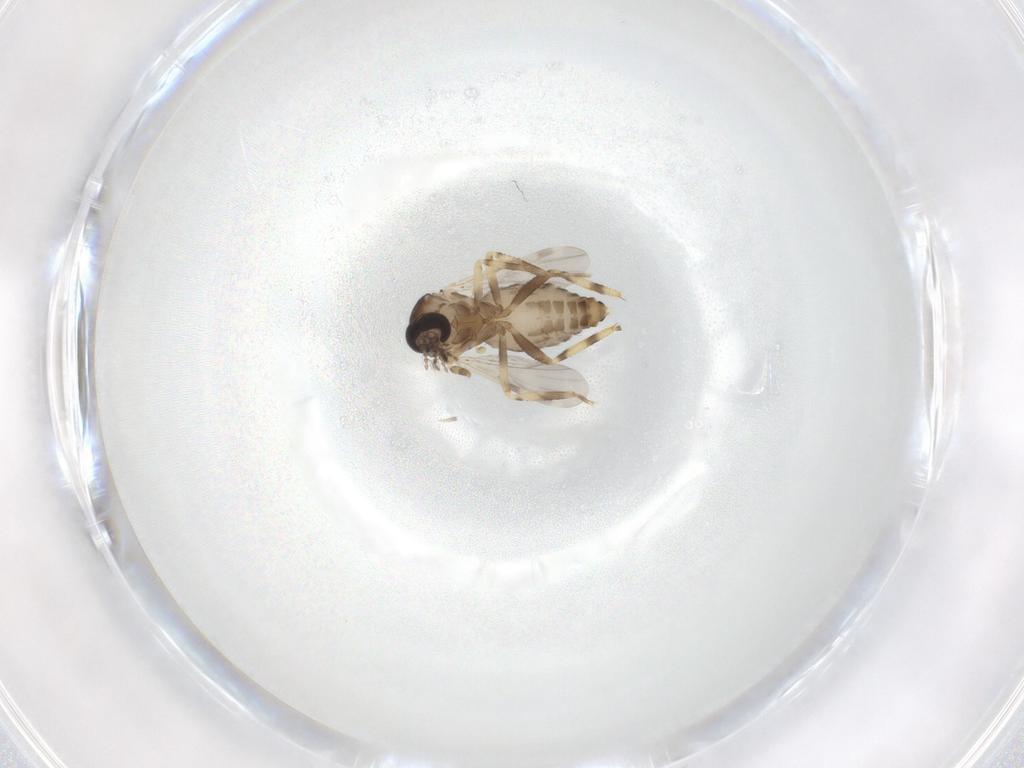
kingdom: Animalia
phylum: Arthropoda
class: Insecta
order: Diptera
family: Ceratopogonidae
